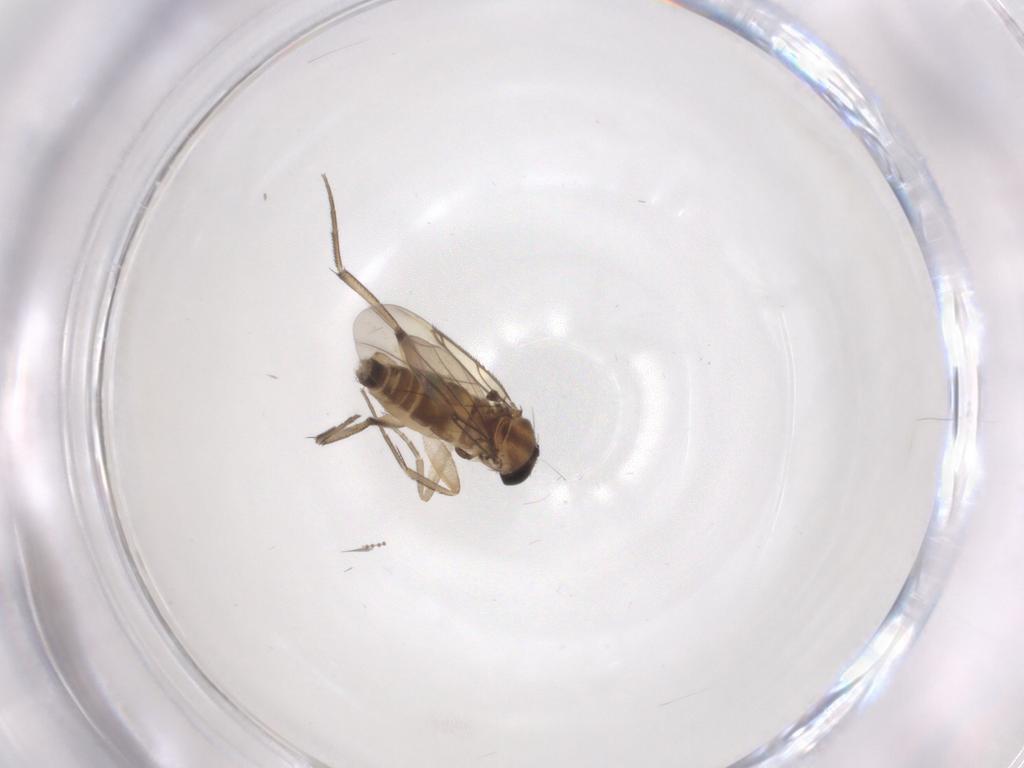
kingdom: Animalia
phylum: Arthropoda
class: Insecta
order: Diptera
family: Phoridae
